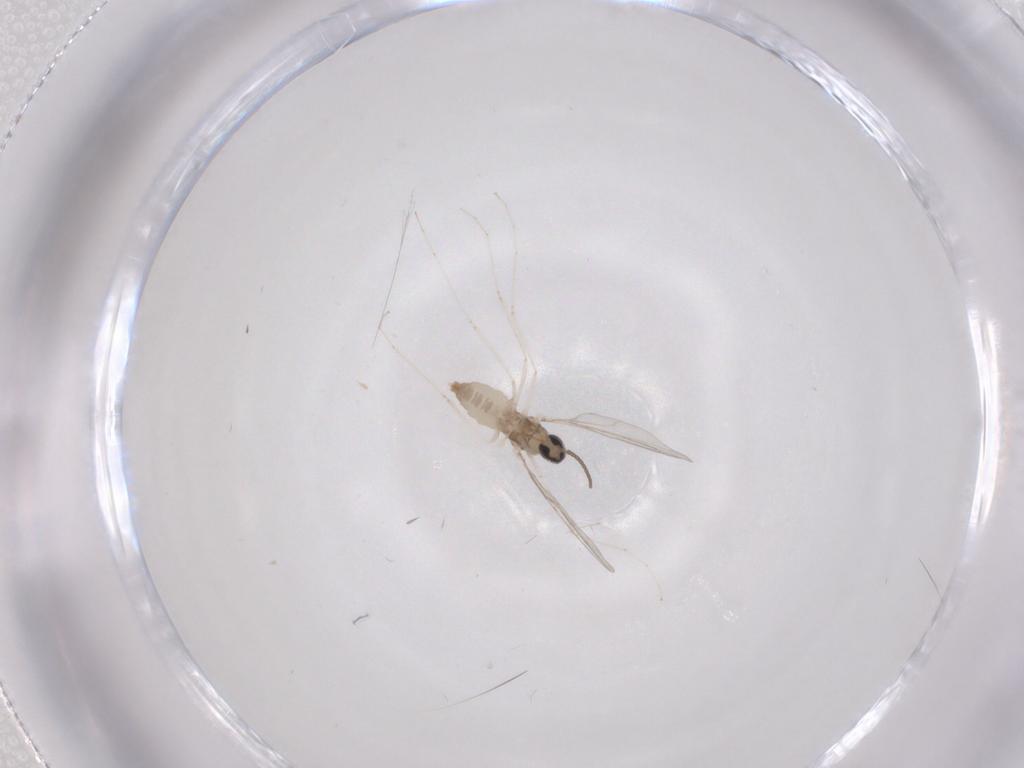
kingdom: Animalia
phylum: Arthropoda
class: Insecta
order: Diptera
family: Cecidomyiidae
